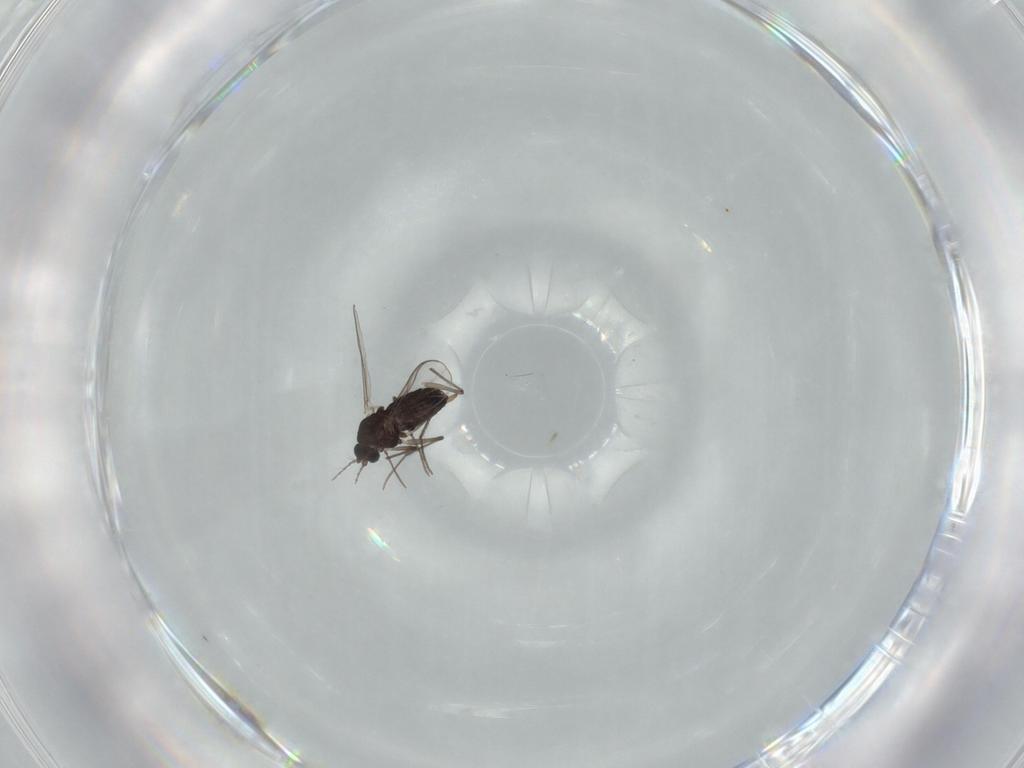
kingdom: Animalia
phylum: Arthropoda
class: Insecta
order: Diptera
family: Chironomidae
